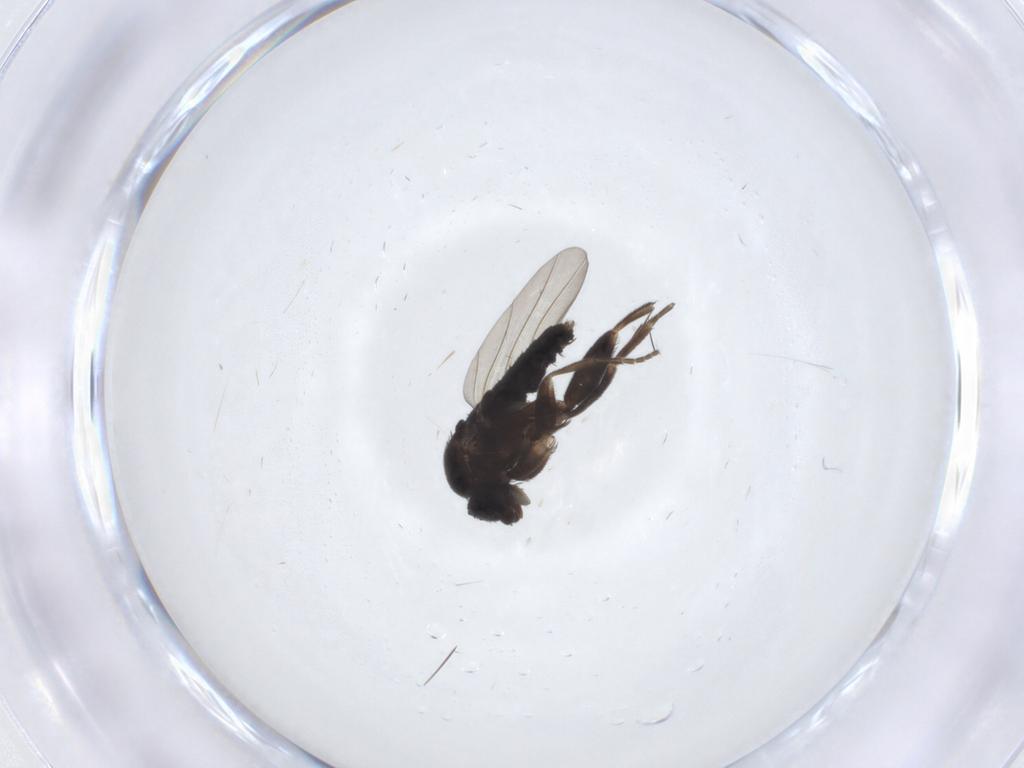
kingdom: Animalia
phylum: Arthropoda
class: Insecta
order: Diptera
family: Phoridae
